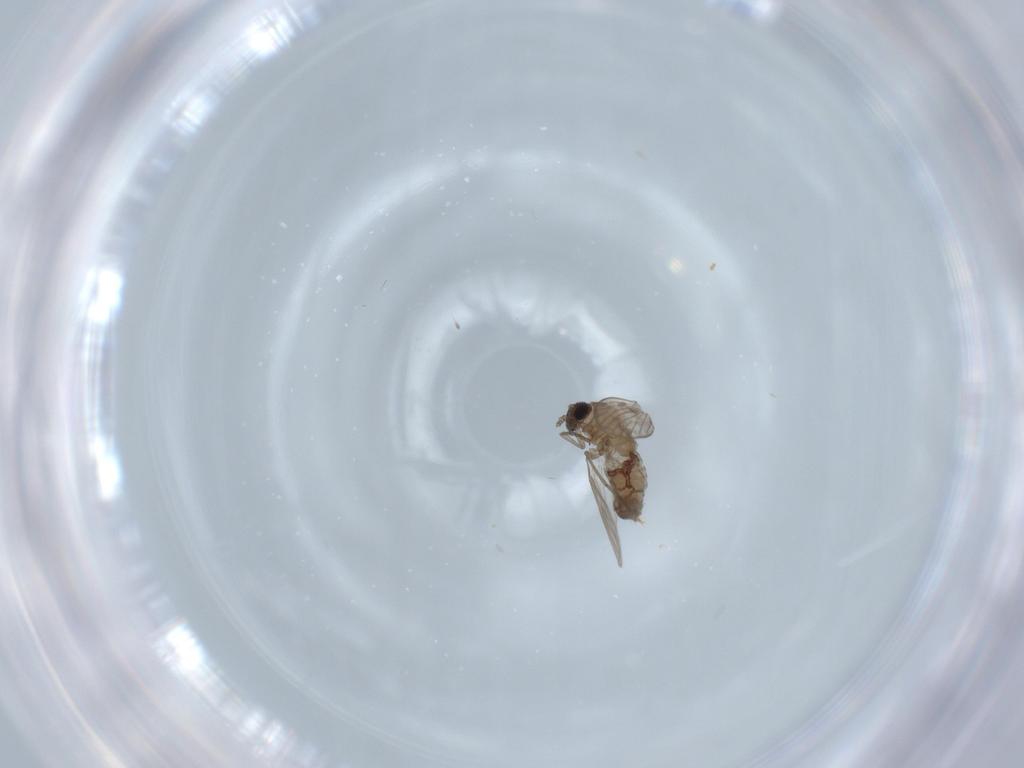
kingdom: Animalia
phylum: Arthropoda
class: Insecta
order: Diptera
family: Psychodidae
